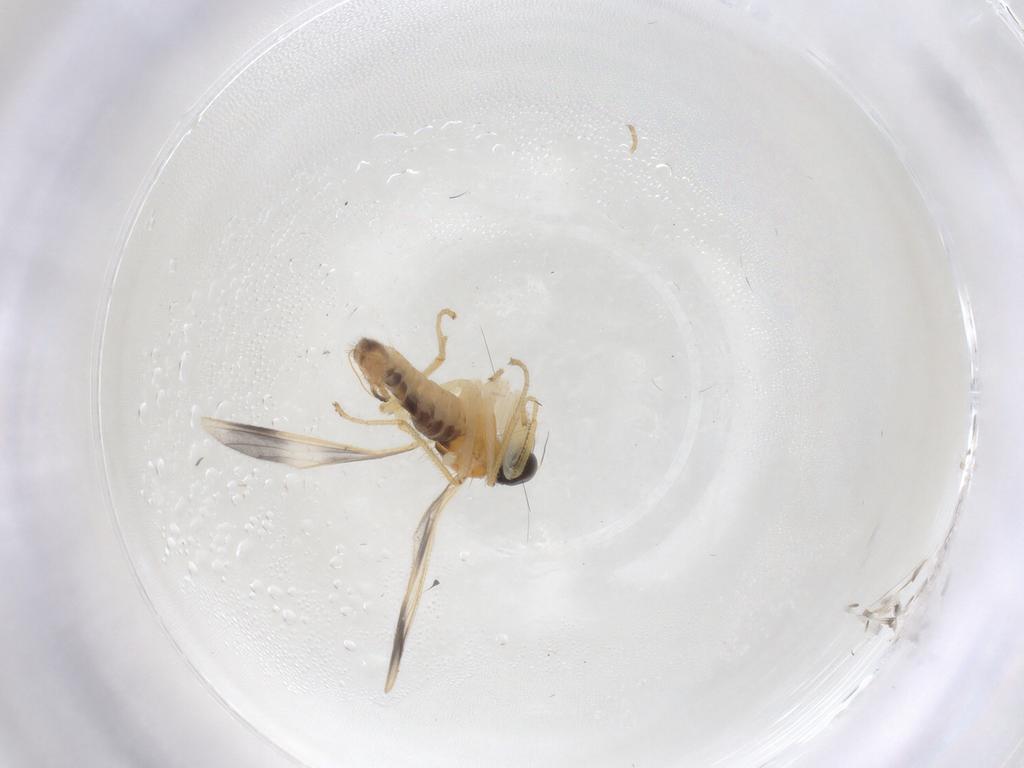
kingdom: Animalia
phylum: Arthropoda
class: Insecta
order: Diptera
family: Empididae
